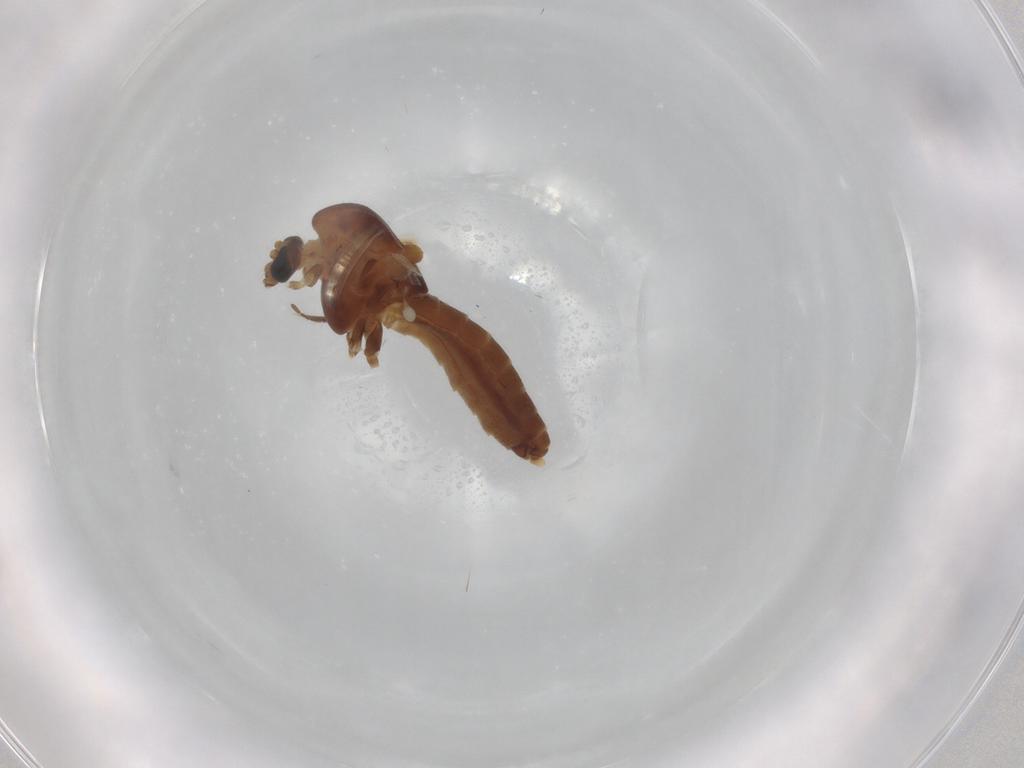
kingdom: Animalia
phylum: Arthropoda
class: Insecta
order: Diptera
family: Chironomidae
